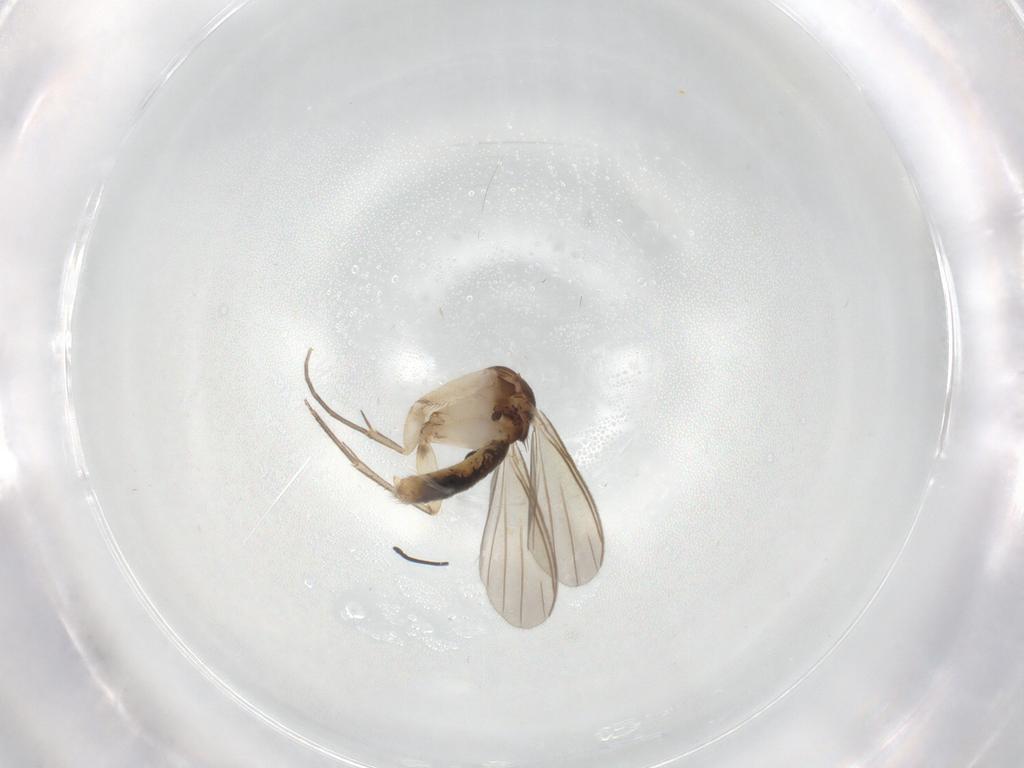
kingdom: Animalia
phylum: Arthropoda
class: Insecta
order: Diptera
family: Mycetophilidae
